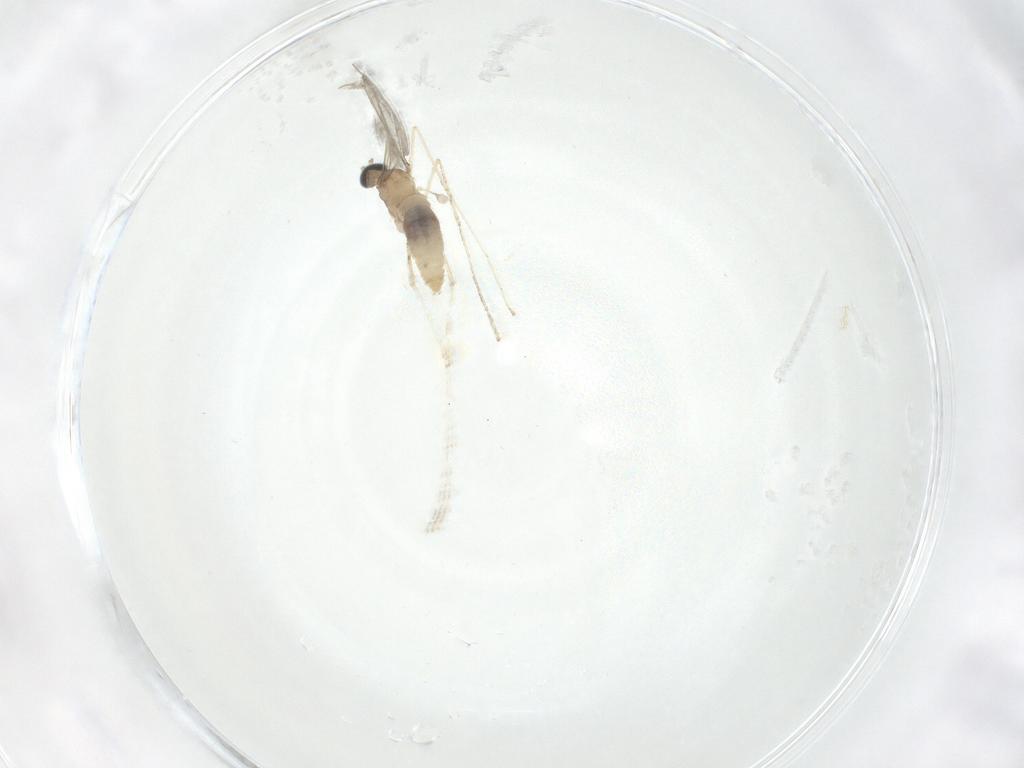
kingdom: Animalia
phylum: Arthropoda
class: Insecta
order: Diptera
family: Cecidomyiidae
